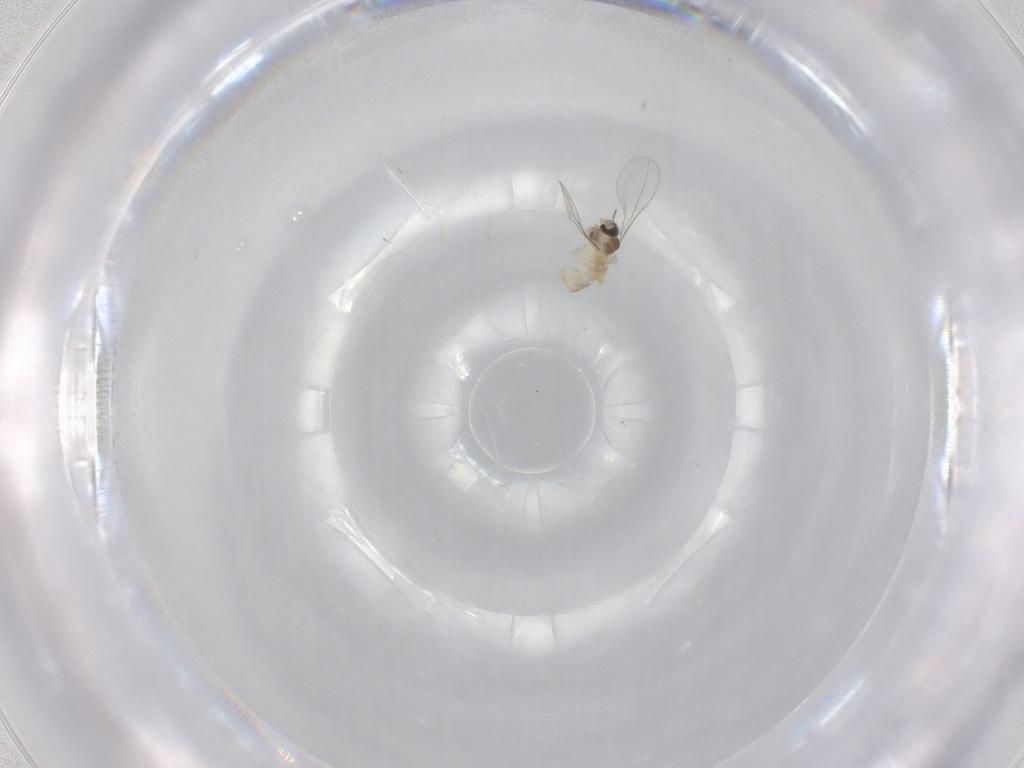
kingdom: Animalia
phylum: Arthropoda
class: Insecta
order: Diptera
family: Cecidomyiidae
